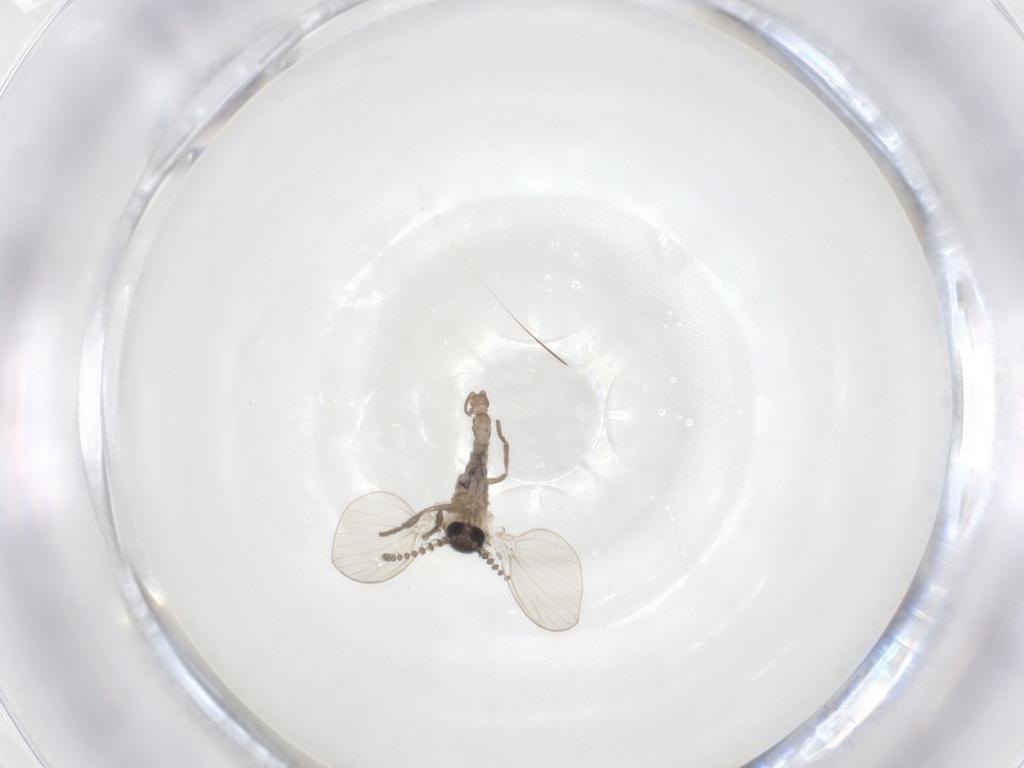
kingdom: Animalia
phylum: Arthropoda
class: Insecta
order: Diptera
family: Psychodidae
